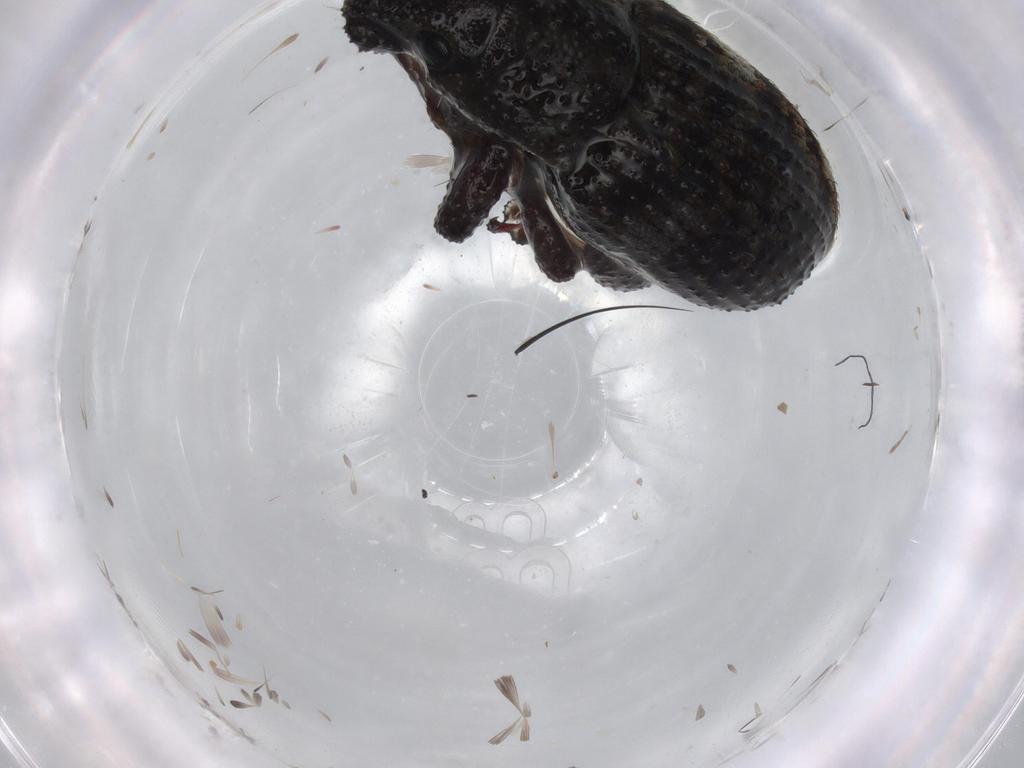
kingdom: Animalia
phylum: Arthropoda
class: Insecta
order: Coleoptera
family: Curculionidae
